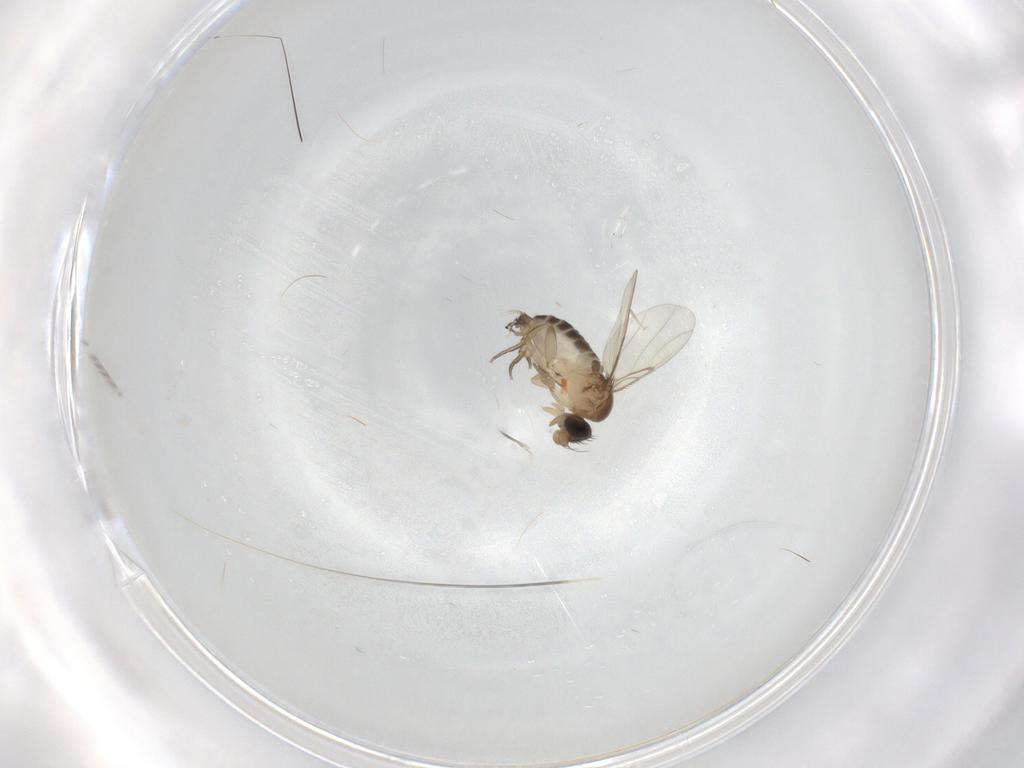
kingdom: Animalia
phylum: Arthropoda
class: Insecta
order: Diptera
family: Phoridae
